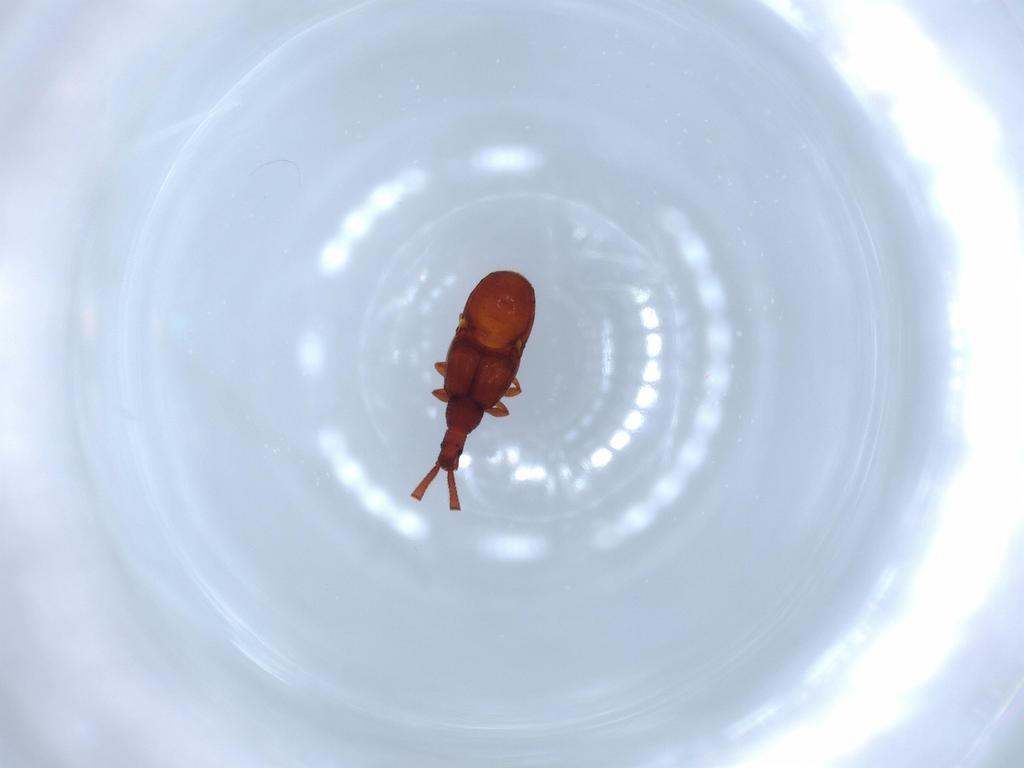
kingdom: Animalia
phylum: Arthropoda
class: Insecta
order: Coleoptera
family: Staphylinidae
